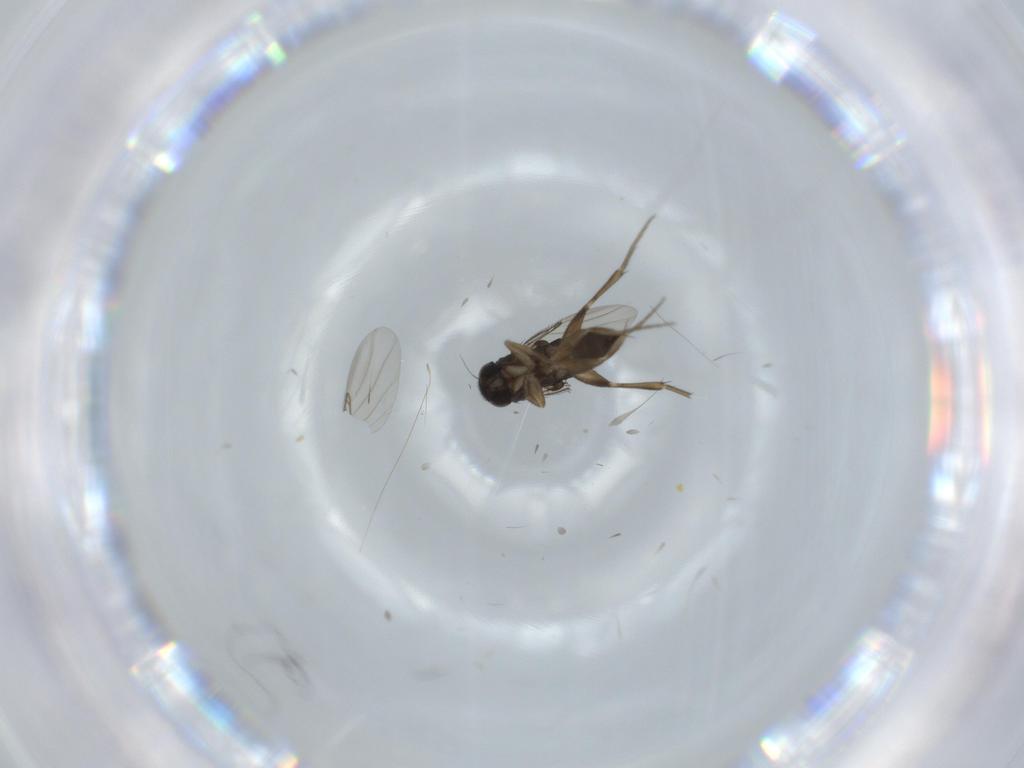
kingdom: Animalia
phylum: Arthropoda
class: Insecta
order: Diptera
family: Phoridae
